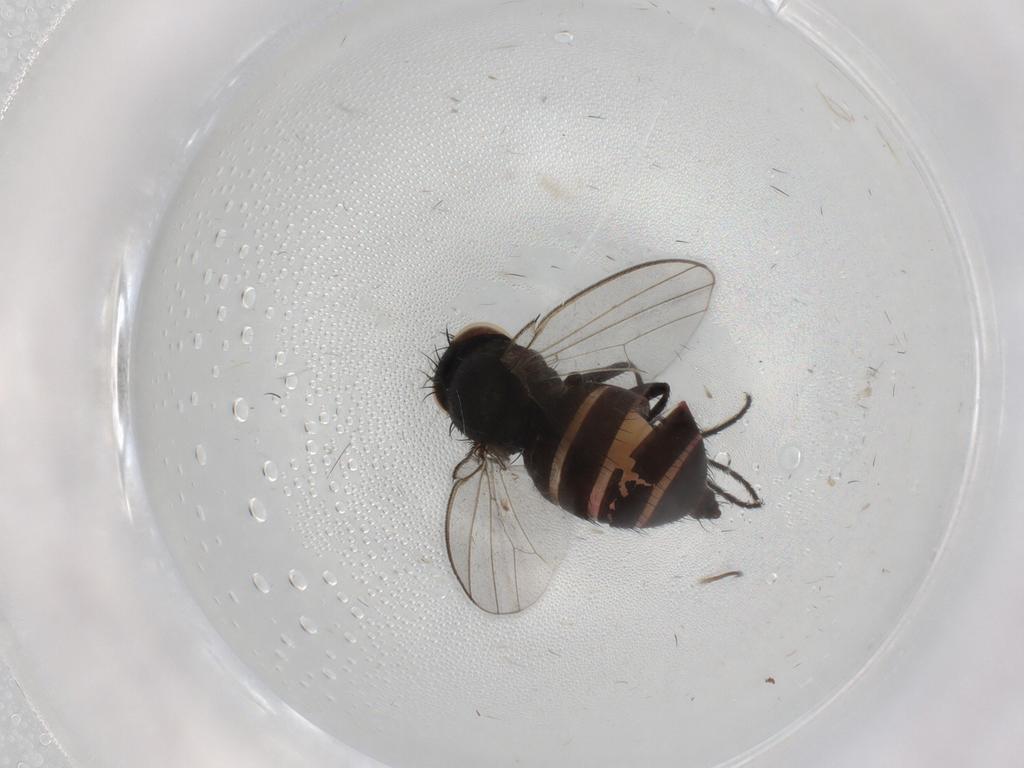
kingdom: Animalia
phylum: Arthropoda
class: Insecta
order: Diptera
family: Milichiidae
